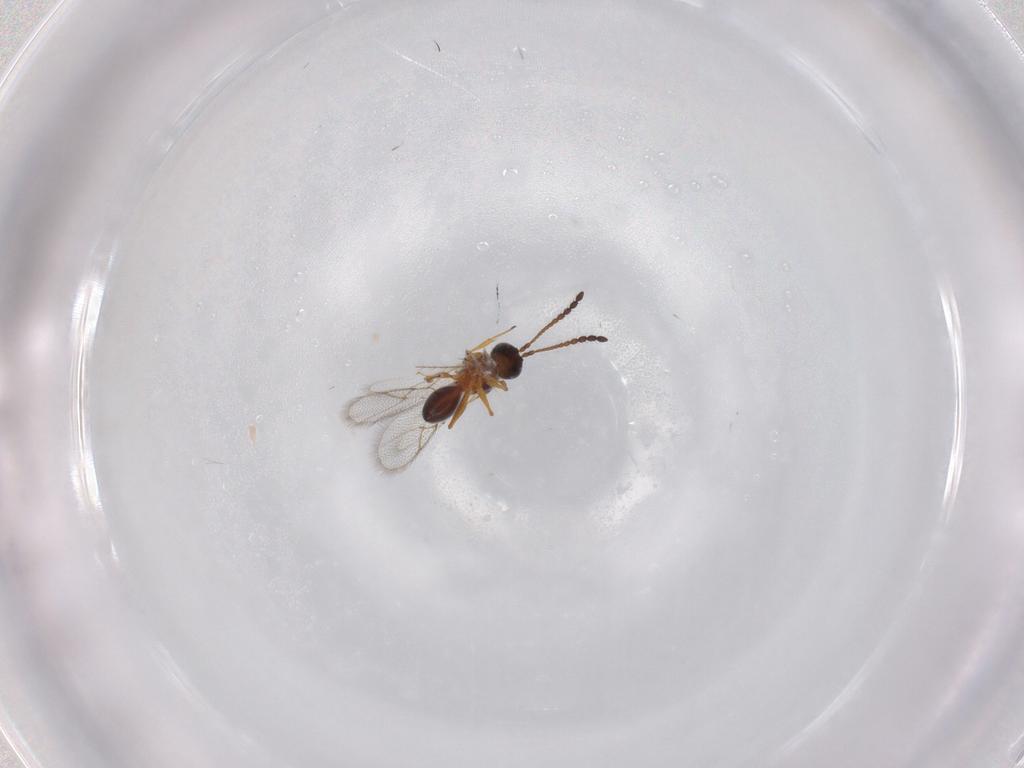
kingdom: Animalia
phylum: Arthropoda
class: Insecta
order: Hymenoptera
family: Figitidae
